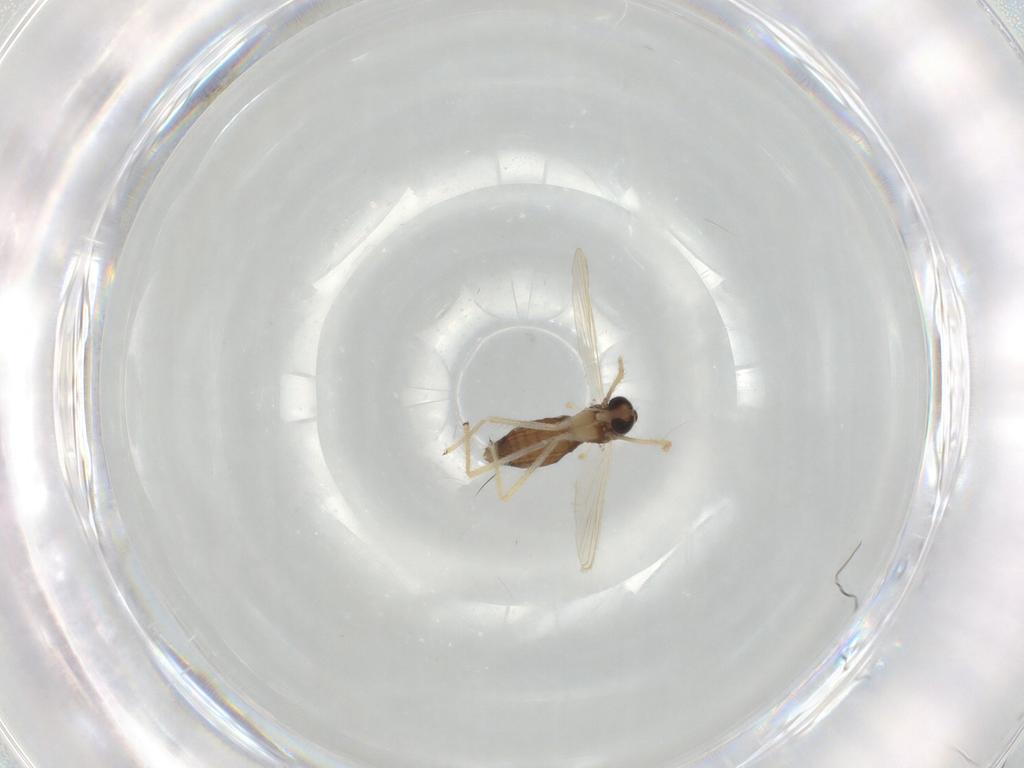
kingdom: Animalia
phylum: Arthropoda
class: Insecta
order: Diptera
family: Chironomidae
